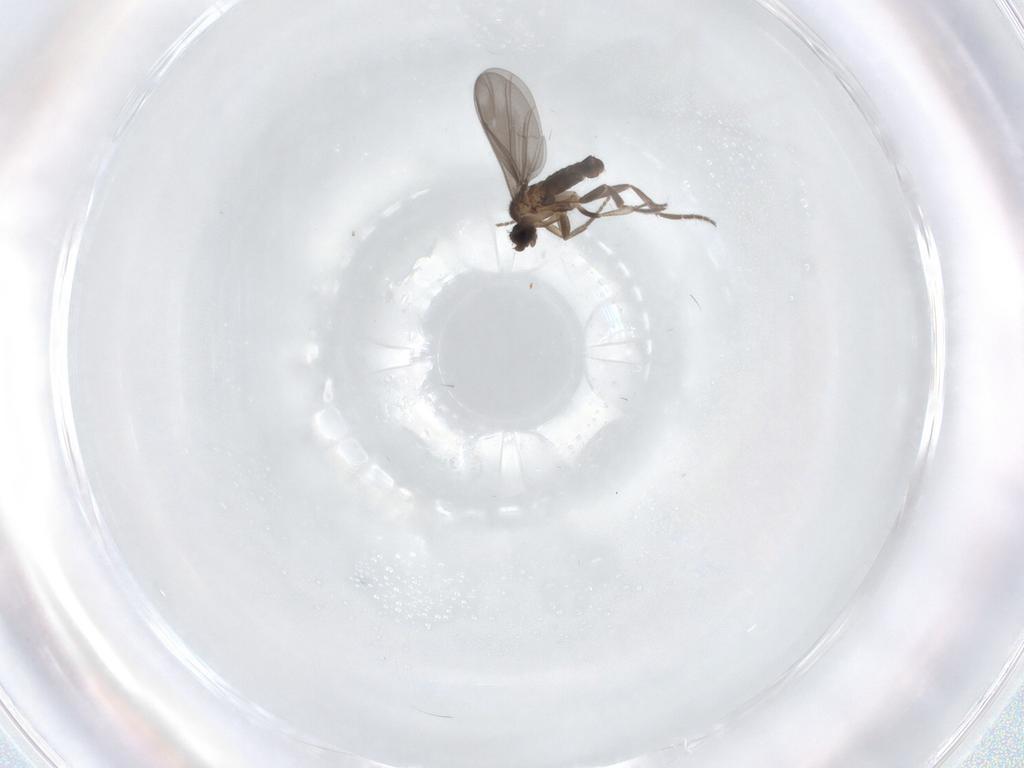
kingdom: Animalia
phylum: Arthropoda
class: Insecta
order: Diptera
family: Phoridae
